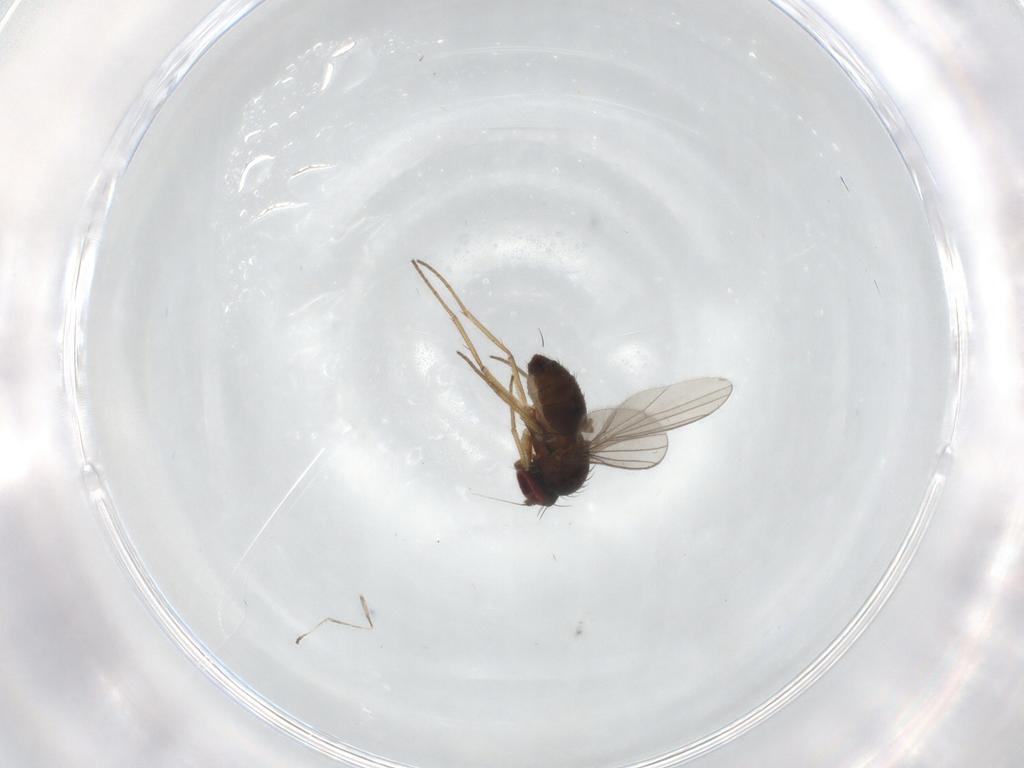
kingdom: Animalia
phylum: Arthropoda
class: Insecta
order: Diptera
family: Dolichopodidae
